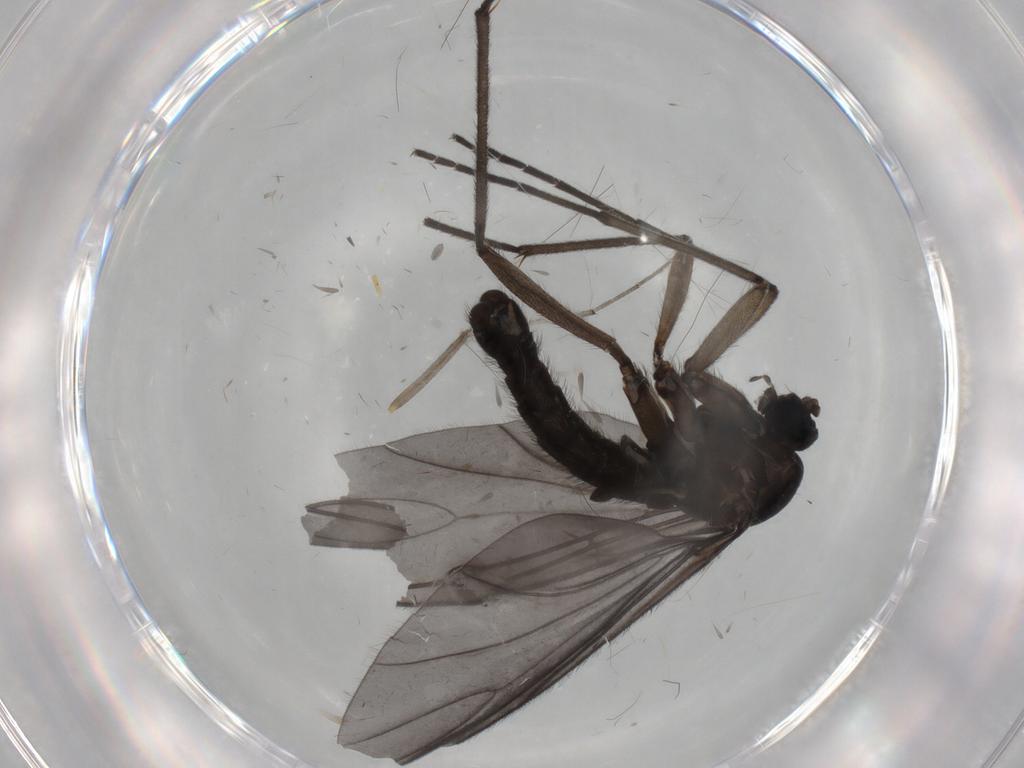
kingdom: Animalia
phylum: Arthropoda
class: Insecta
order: Diptera
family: Sciaridae
